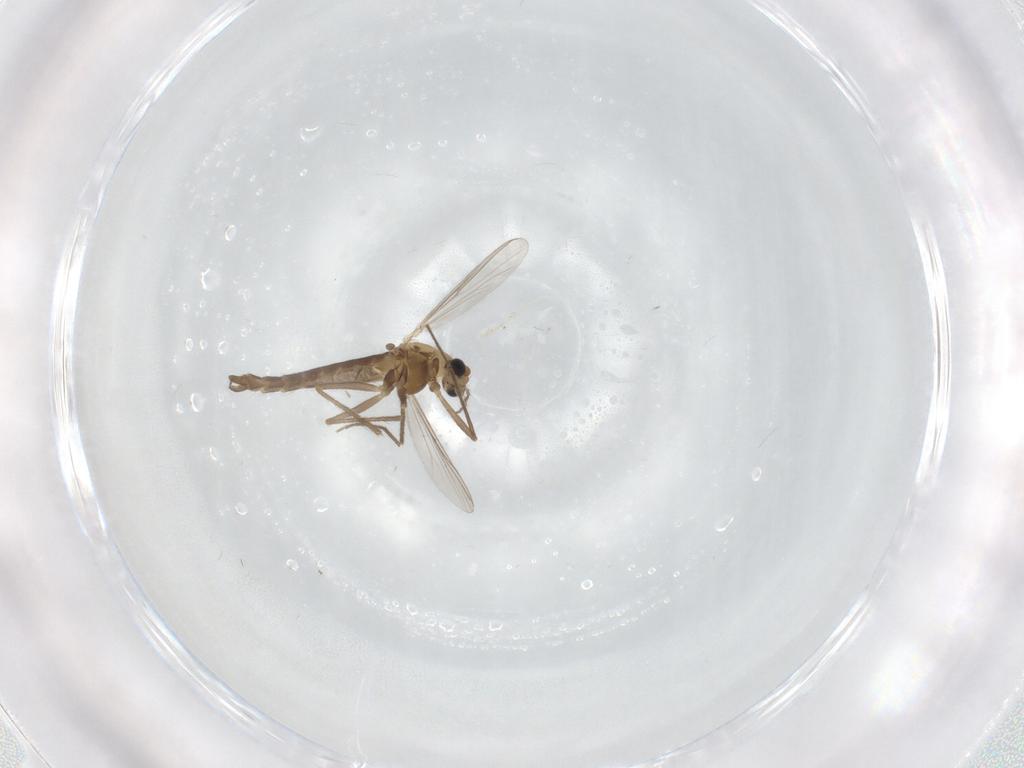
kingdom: Animalia
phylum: Arthropoda
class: Insecta
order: Diptera
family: Chironomidae
